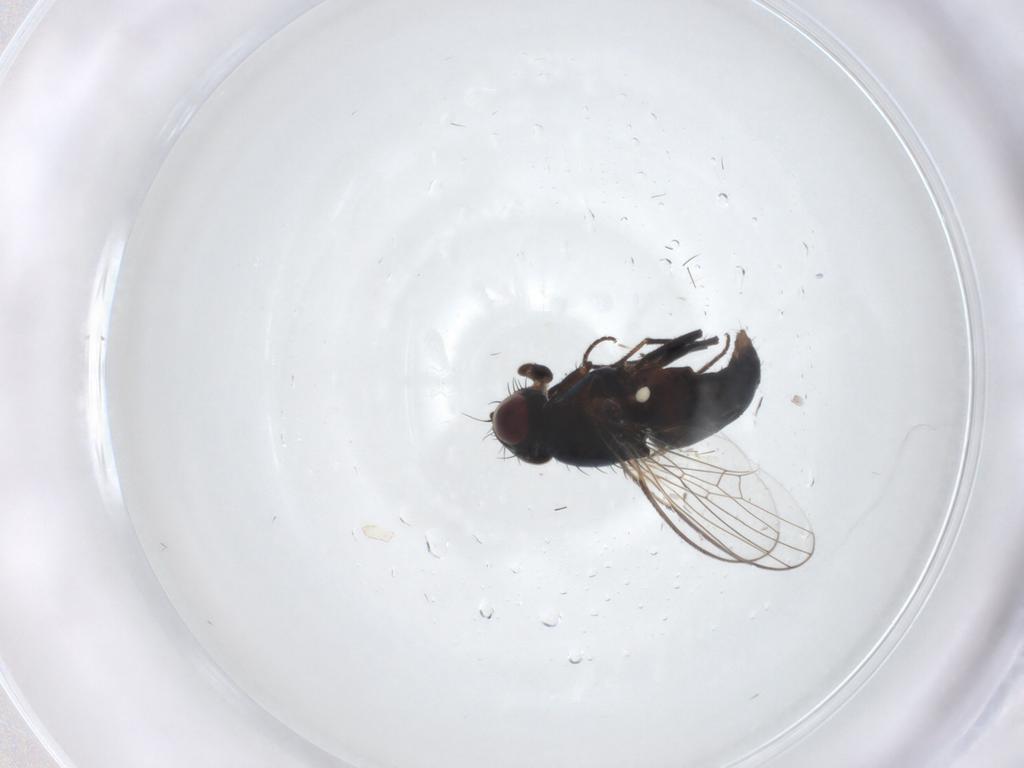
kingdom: Animalia
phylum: Arthropoda
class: Insecta
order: Diptera
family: Carnidae
